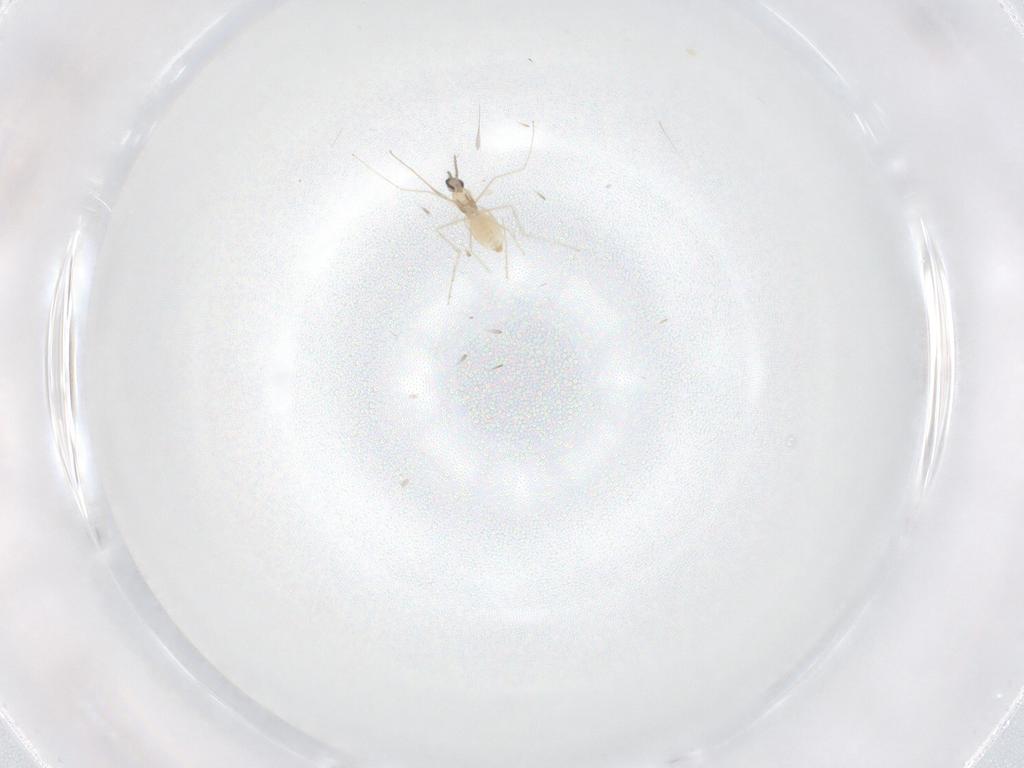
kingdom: Animalia
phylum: Arthropoda
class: Insecta
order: Diptera
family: Cecidomyiidae
